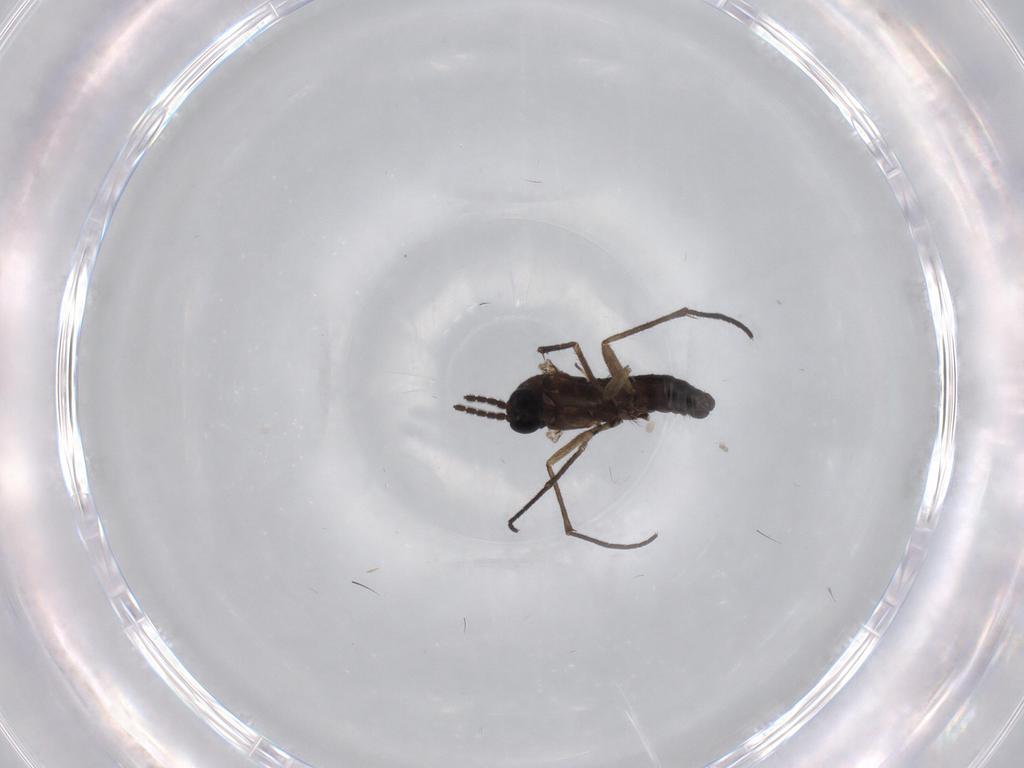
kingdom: Animalia
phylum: Arthropoda
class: Insecta
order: Diptera
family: Sciaridae
